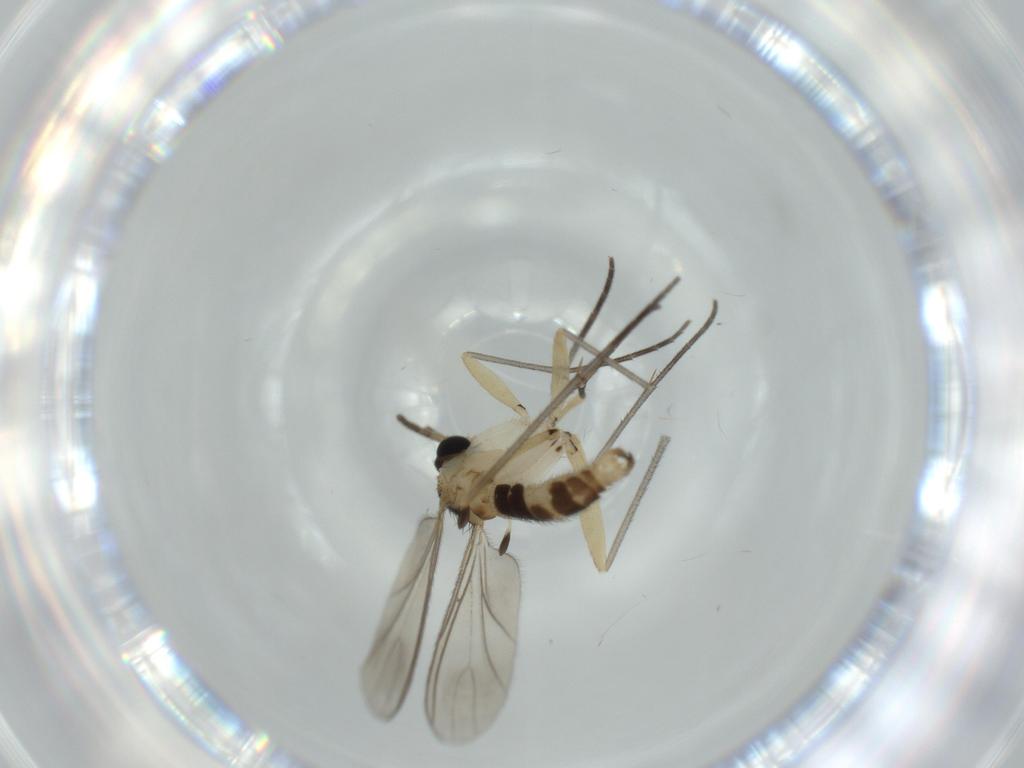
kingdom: Animalia
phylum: Arthropoda
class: Insecta
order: Diptera
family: Sciaridae
